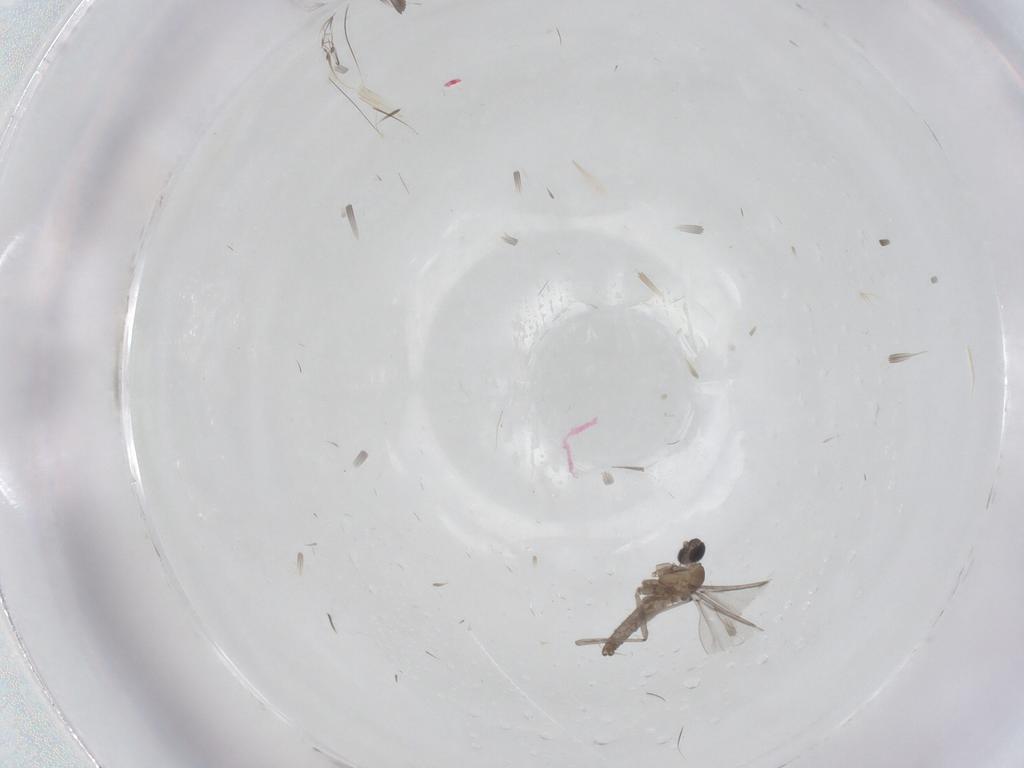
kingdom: Animalia
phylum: Arthropoda
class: Insecta
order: Diptera
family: Cecidomyiidae
